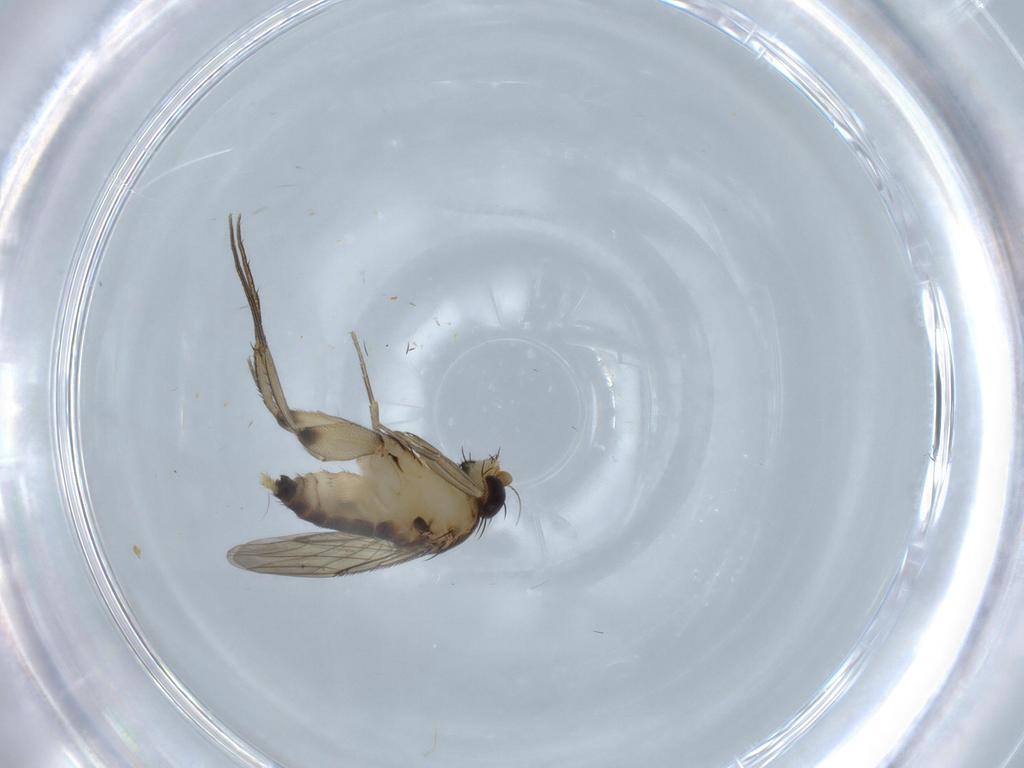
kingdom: Animalia
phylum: Arthropoda
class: Insecta
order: Diptera
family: Phoridae
